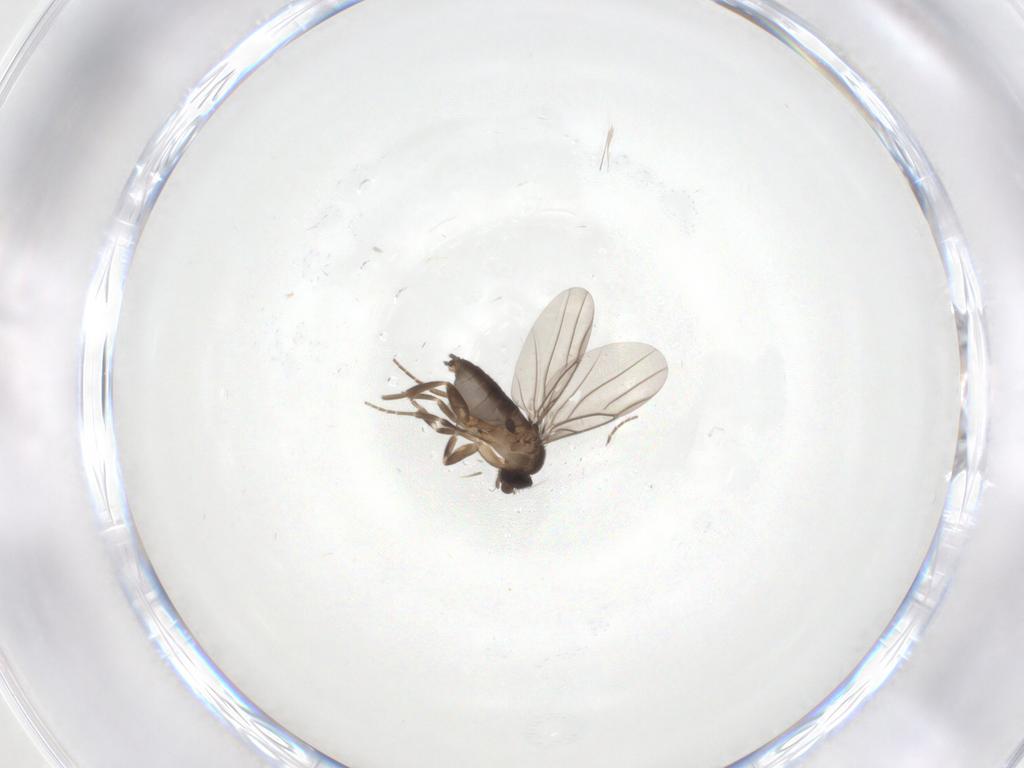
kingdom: Animalia
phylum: Arthropoda
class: Insecta
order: Diptera
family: Phoridae
